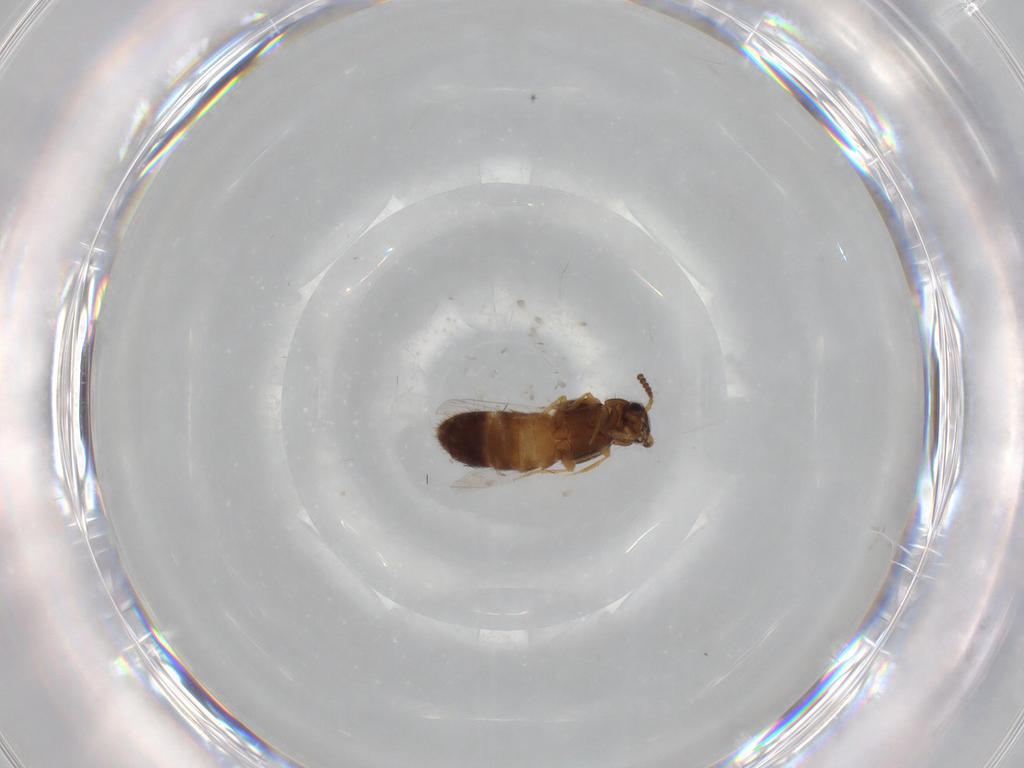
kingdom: Animalia
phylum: Arthropoda
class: Insecta
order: Coleoptera
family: Staphylinidae
